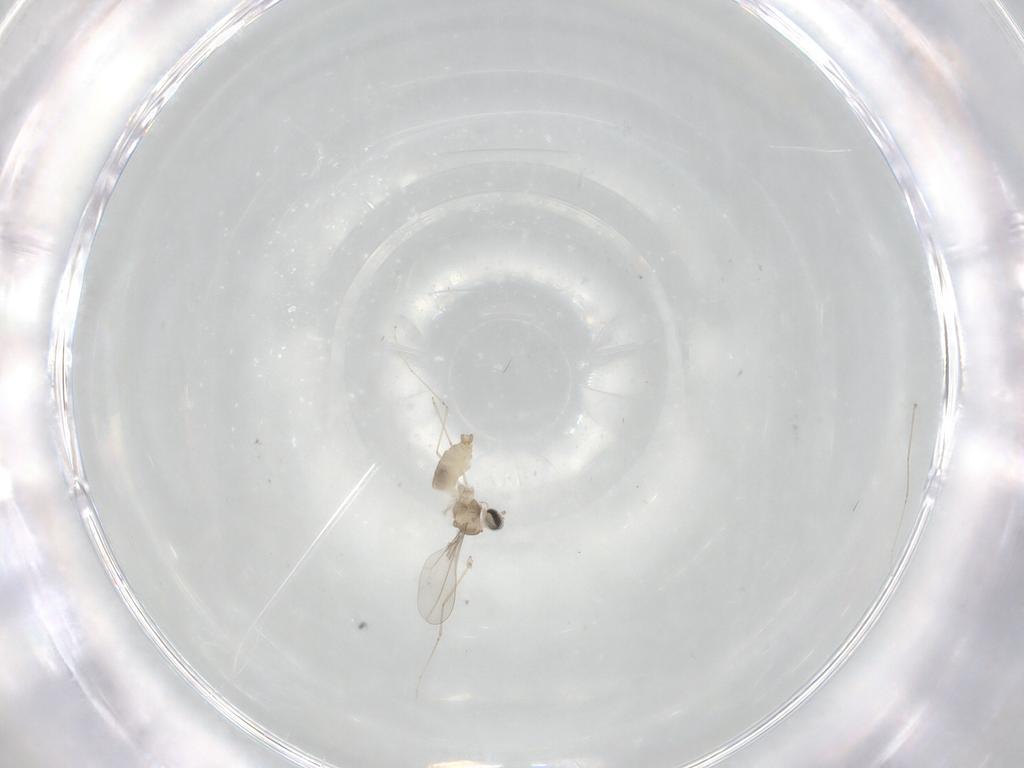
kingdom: Animalia
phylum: Arthropoda
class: Insecta
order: Diptera
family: Cecidomyiidae
